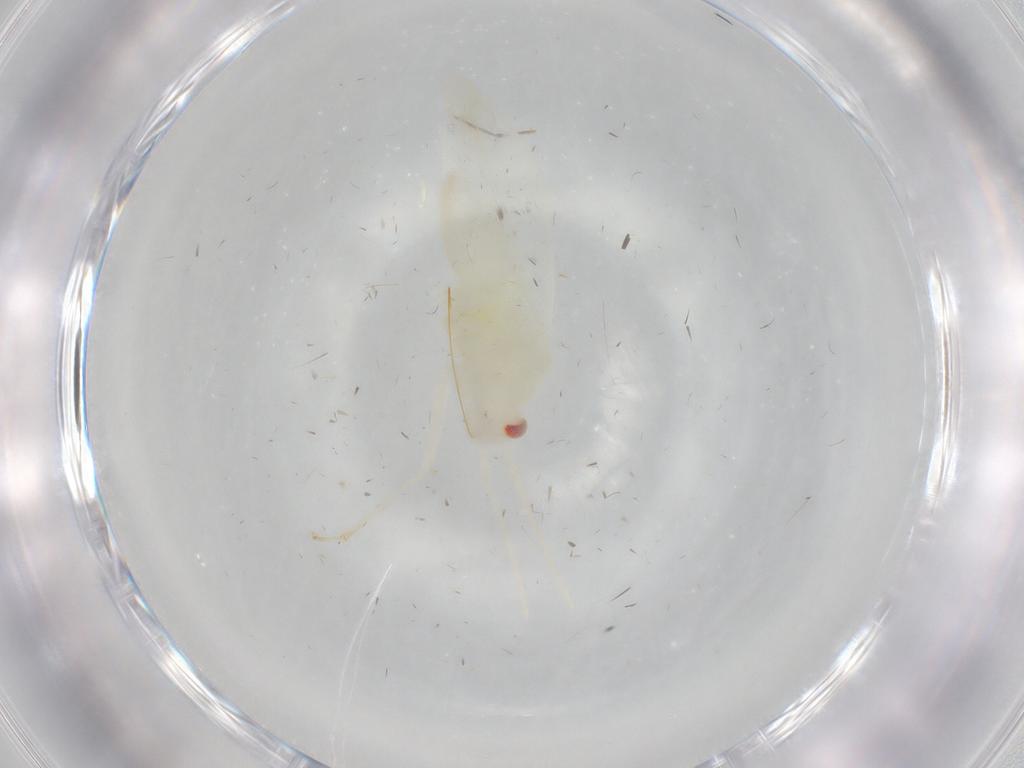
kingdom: Animalia
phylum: Arthropoda
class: Insecta
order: Hemiptera
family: Miridae
